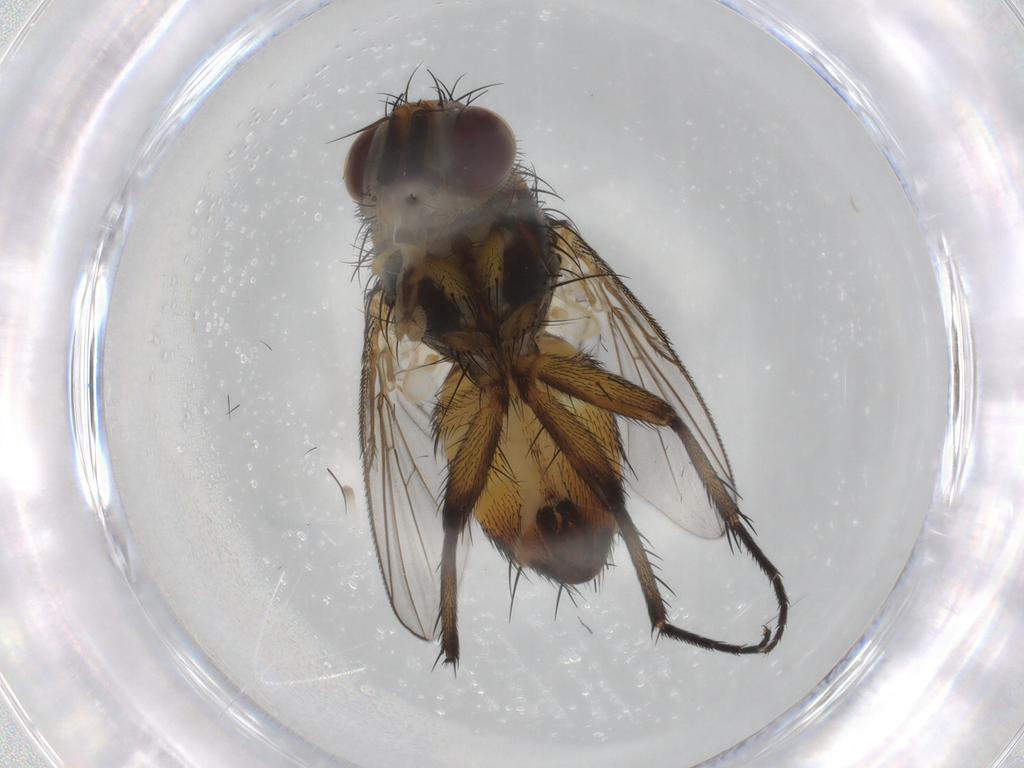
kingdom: Animalia
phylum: Arthropoda
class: Insecta
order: Diptera
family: Tachinidae
